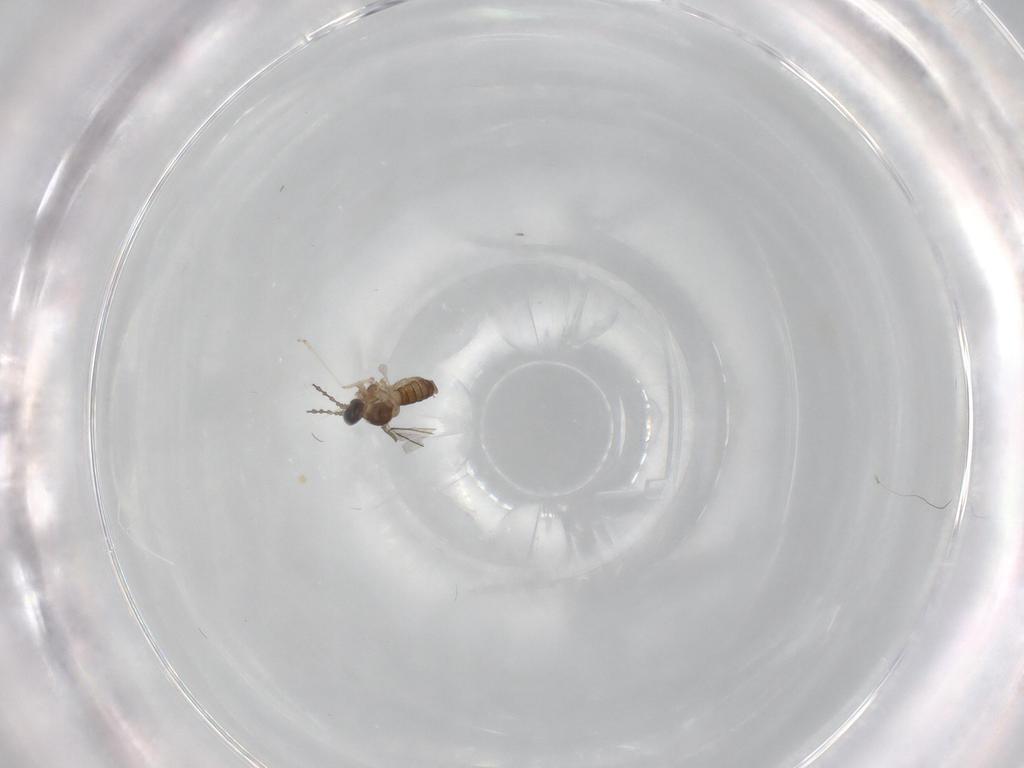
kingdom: Animalia
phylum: Arthropoda
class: Insecta
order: Diptera
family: Cecidomyiidae
